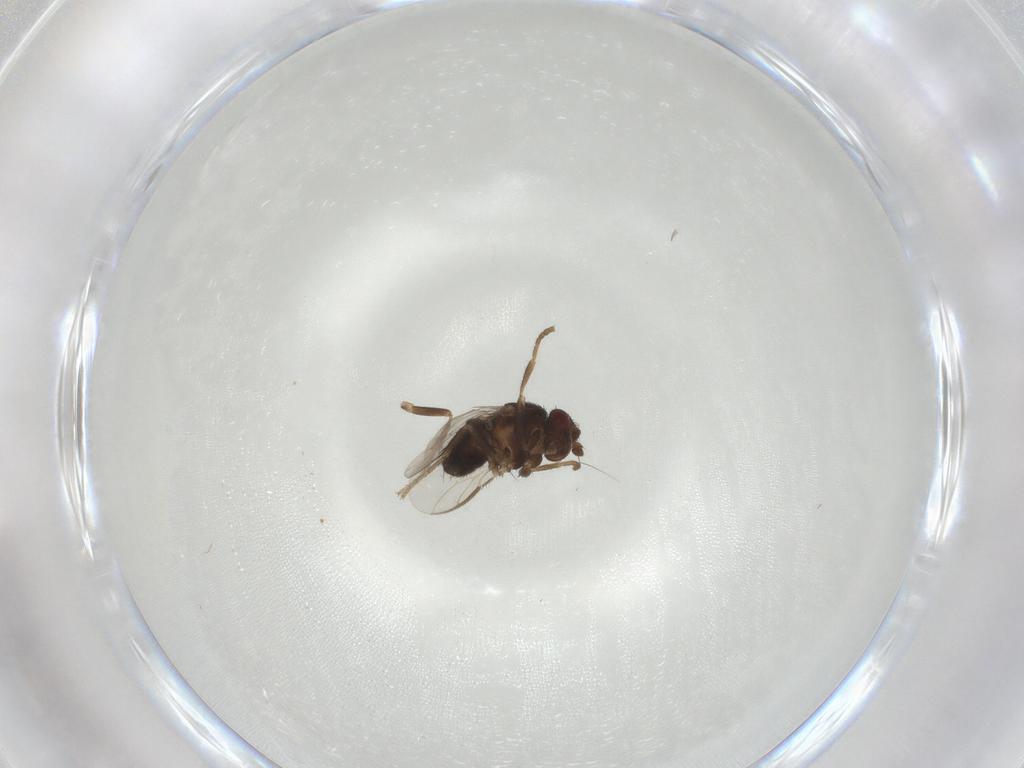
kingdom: Animalia
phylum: Arthropoda
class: Insecta
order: Diptera
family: Sphaeroceridae
